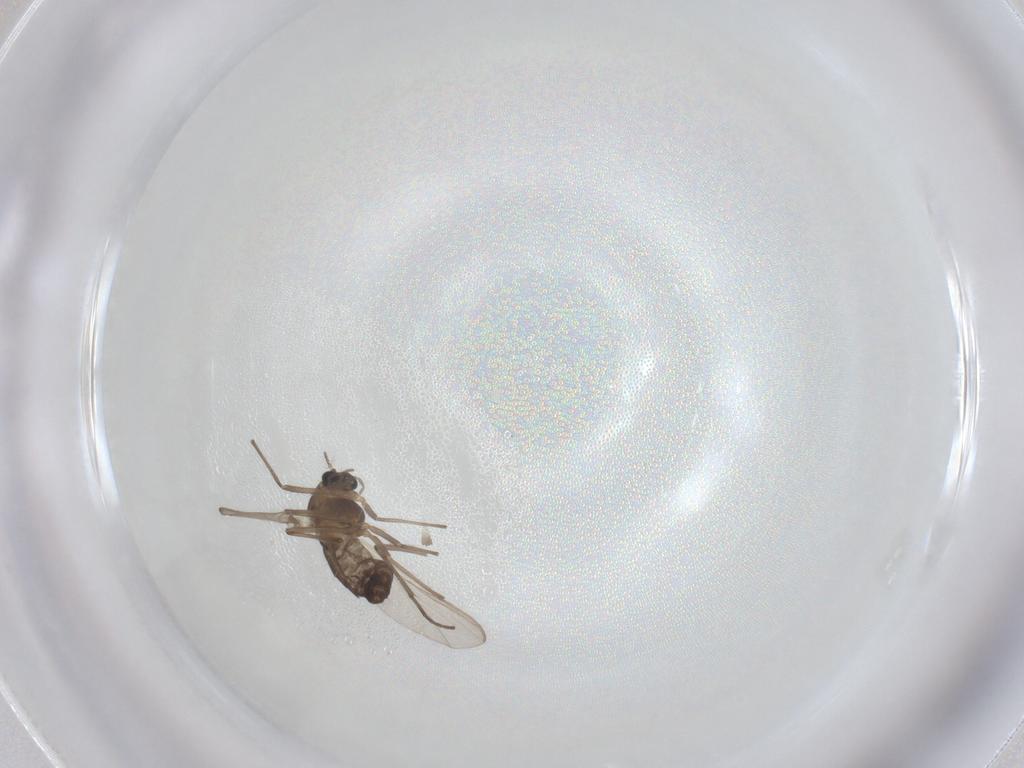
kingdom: Animalia
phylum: Arthropoda
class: Insecta
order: Diptera
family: Chironomidae
